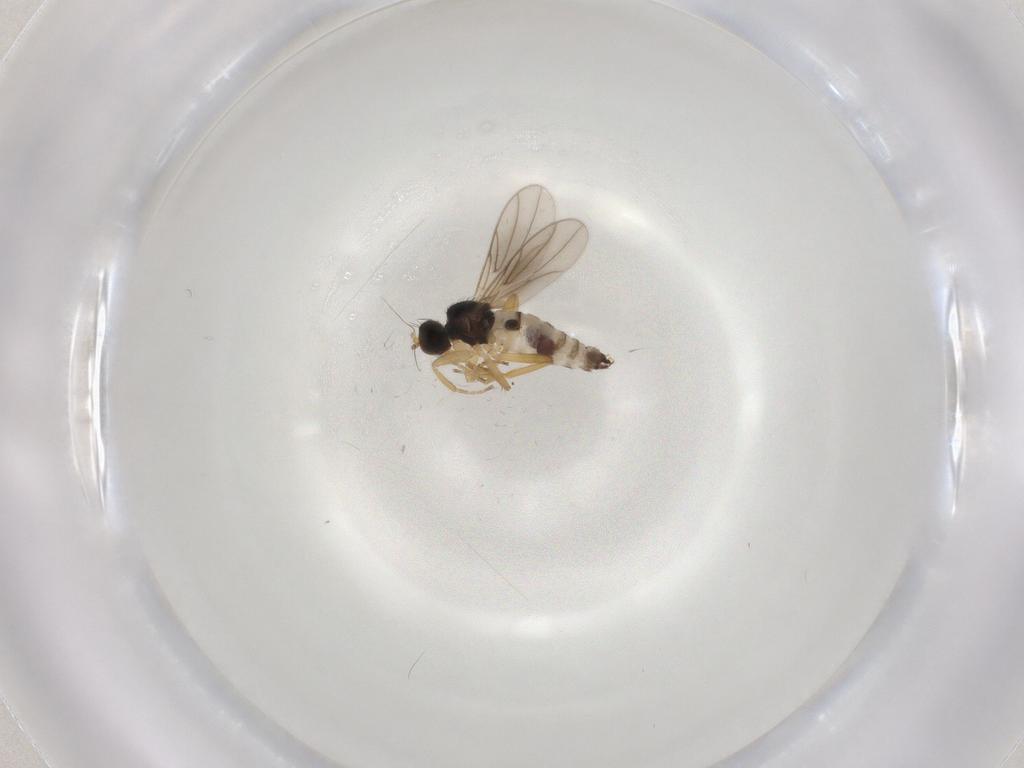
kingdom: Animalia
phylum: Arthropoda
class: Insecta
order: Diptera
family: Hybotidae
